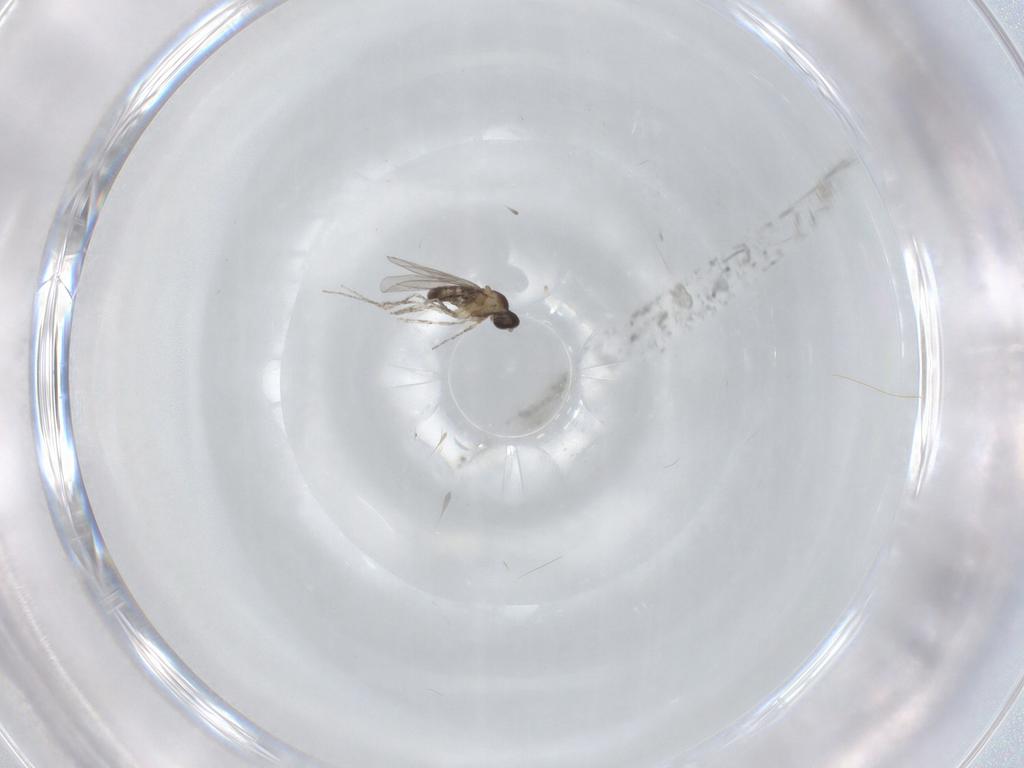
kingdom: Animalia
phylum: Arthropoda
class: Insecta
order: Diptera
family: Cecidomyiidae
